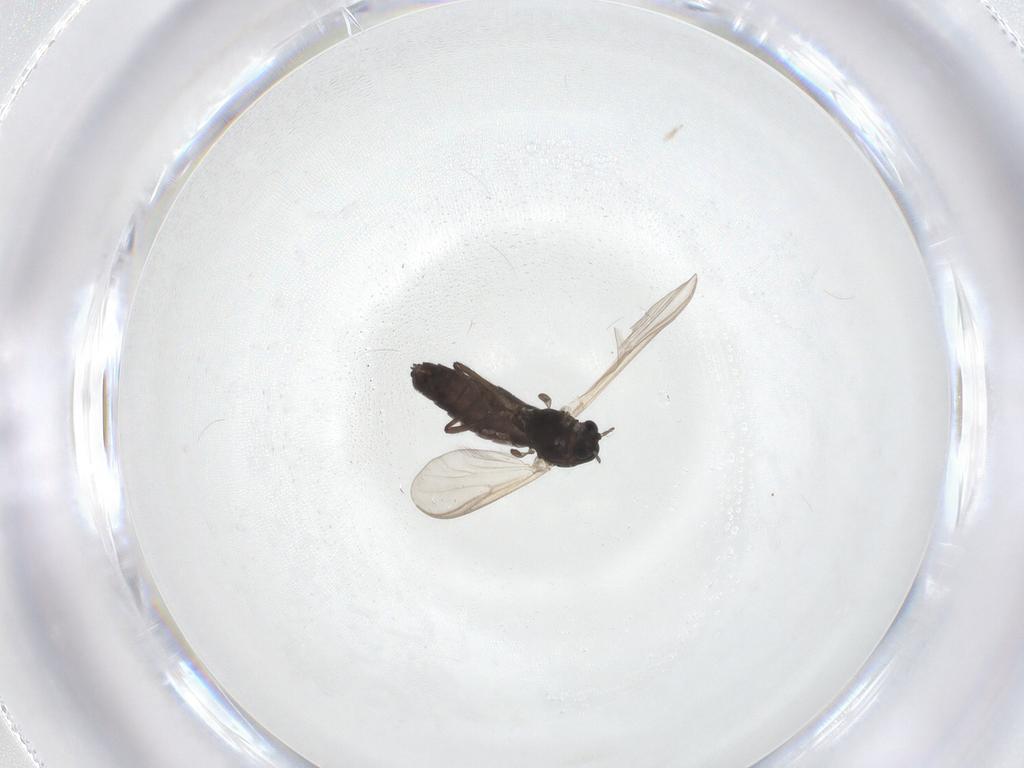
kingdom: Animalia
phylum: Arthropoda
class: Insecta
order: Diptera
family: Chironomidae
